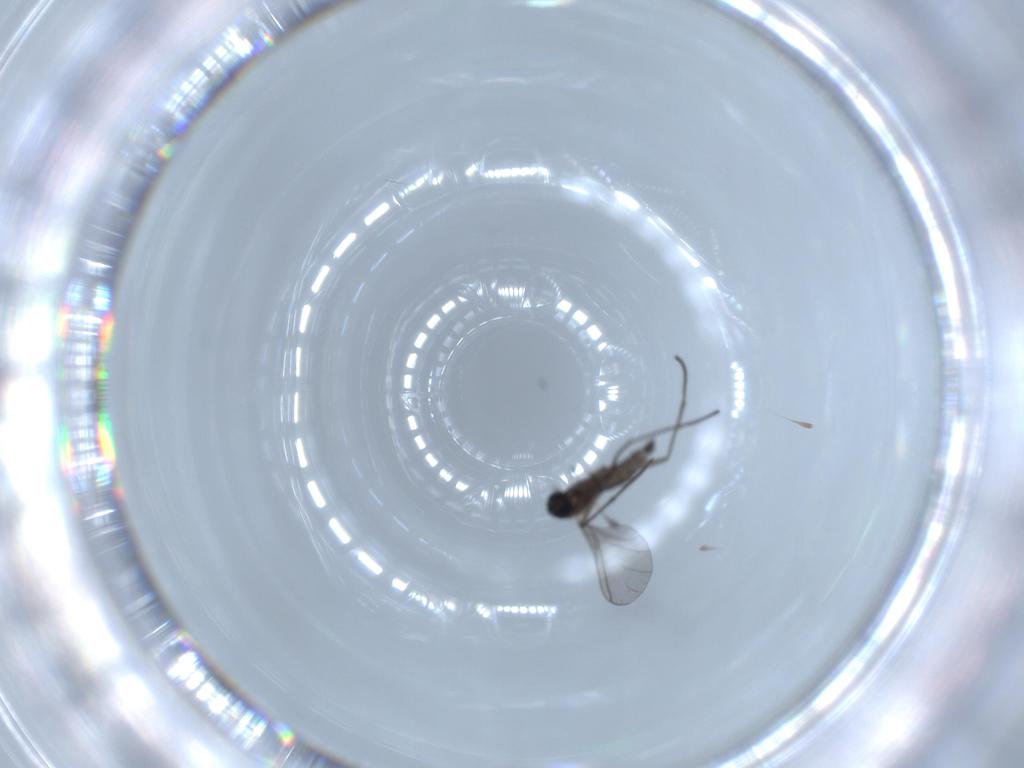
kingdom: Animalia
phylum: Arthropoda
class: Insecta
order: Diptera
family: Sciaridae
